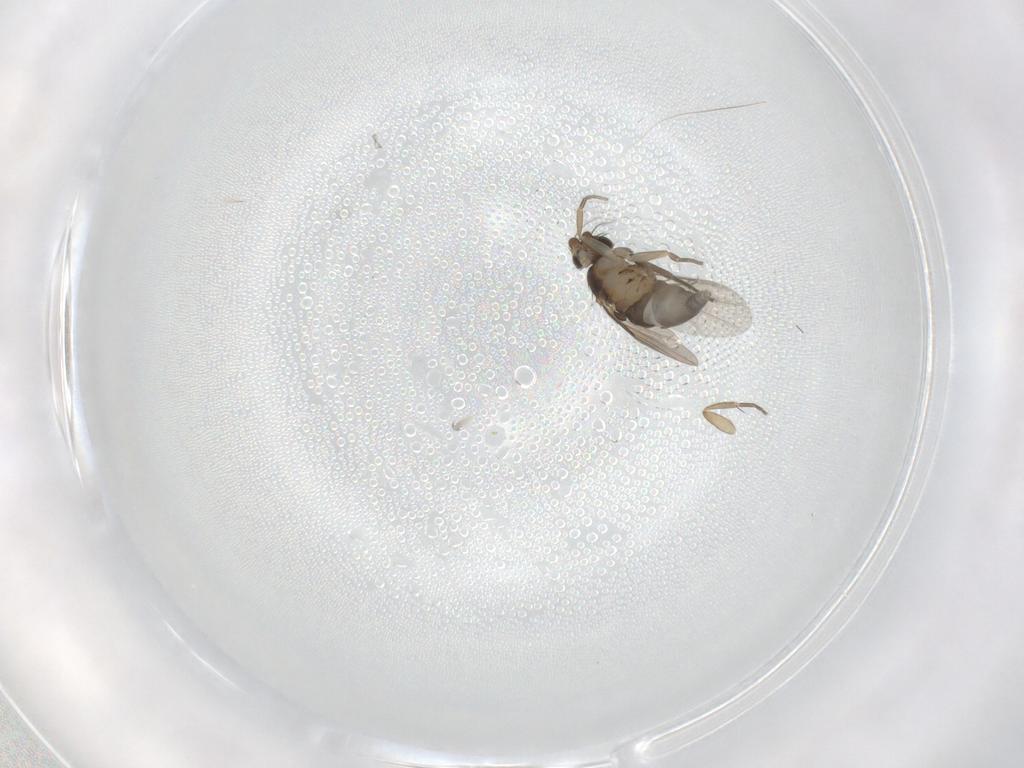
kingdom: Animalia
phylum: Arthropoda
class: Insecta
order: Diptera
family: Phoridae
